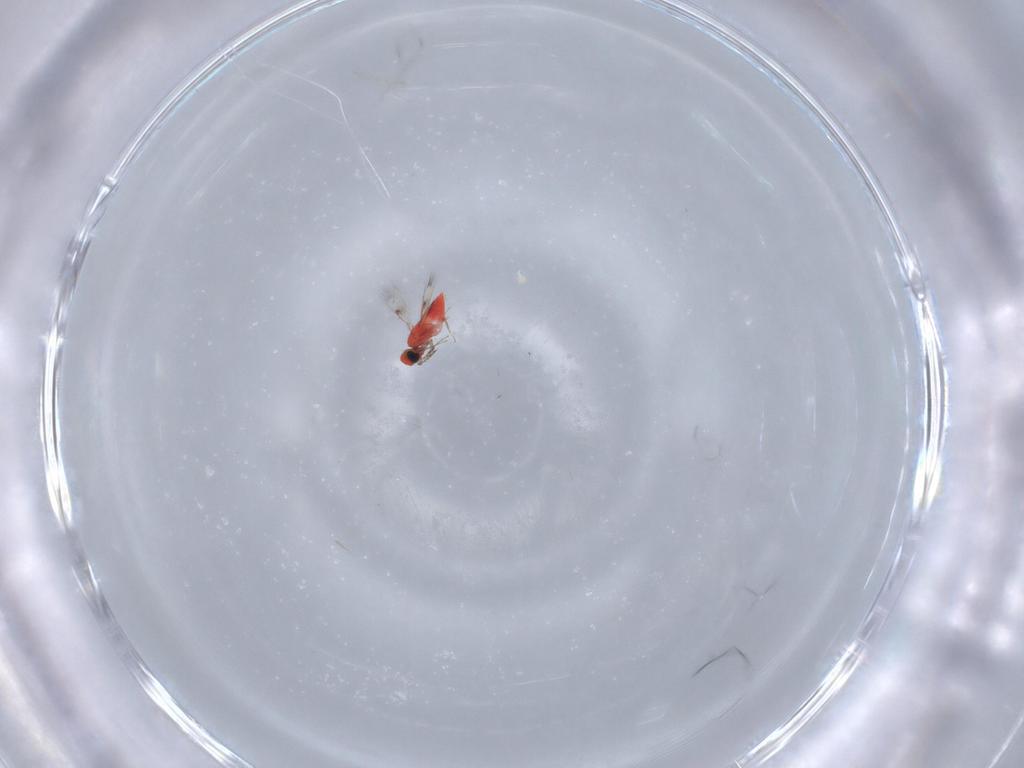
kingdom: Animalia
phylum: Arthropoda
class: Insecta
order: Hymenoptera
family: Trichogrammatidae
